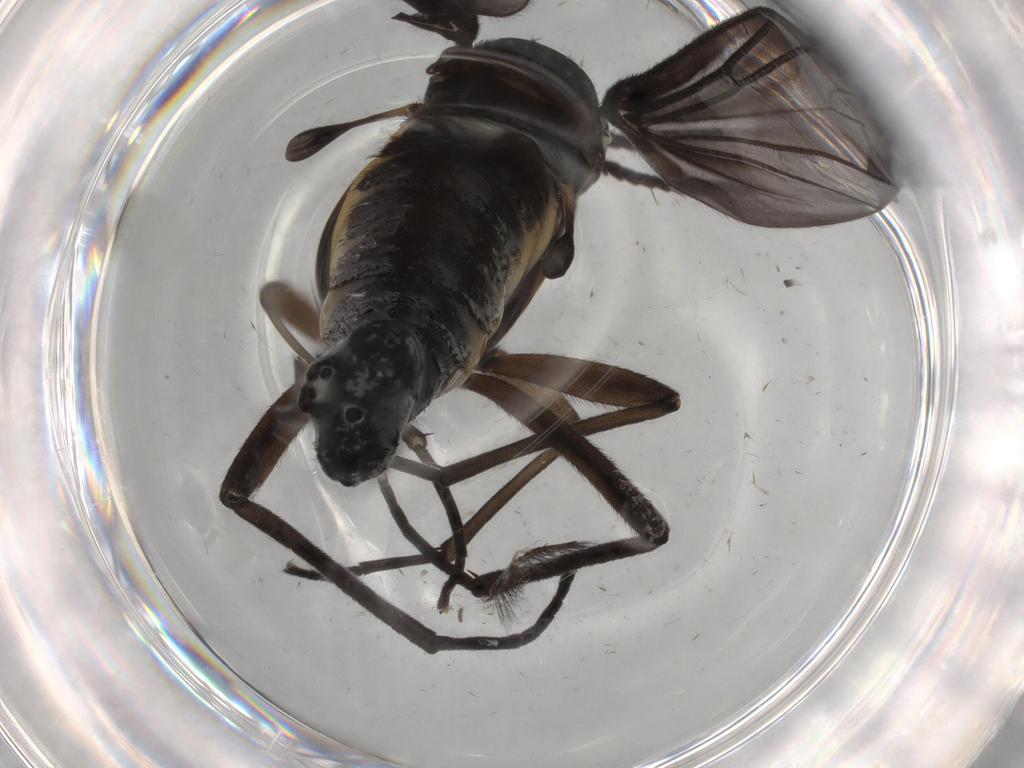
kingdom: Animalia
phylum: Arthropoda
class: Insecta
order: Diptera
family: Sciaridae
